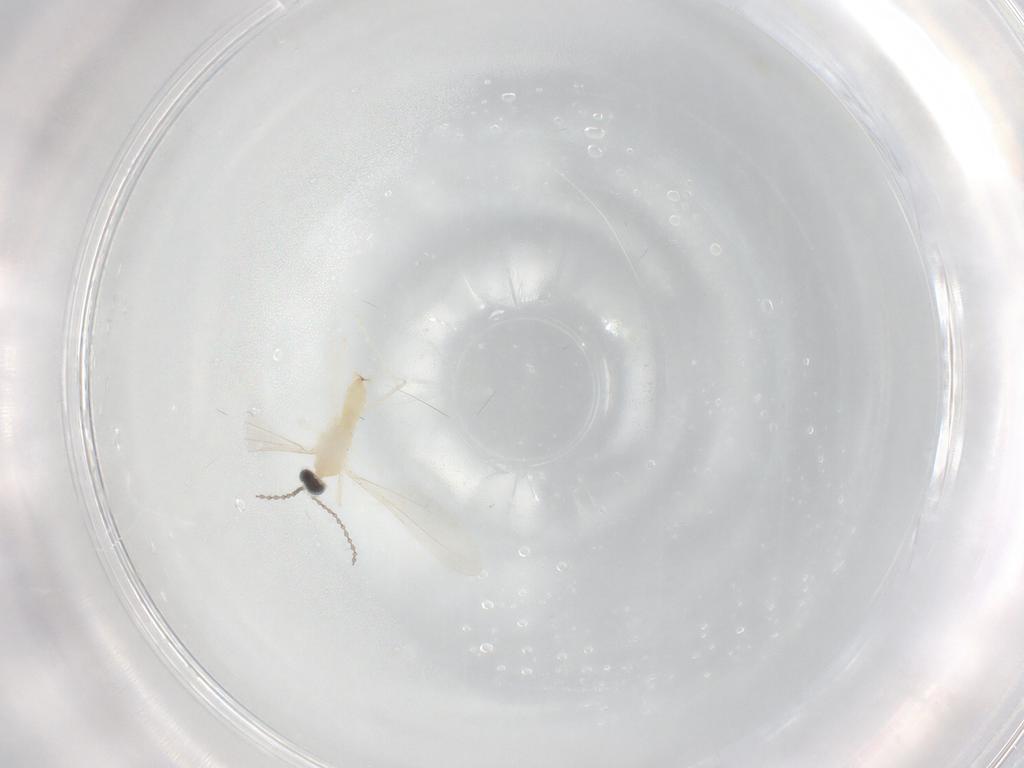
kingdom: Animalia
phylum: Arthropoda
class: Insecta
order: Diptera
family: Cecidomyiidae
